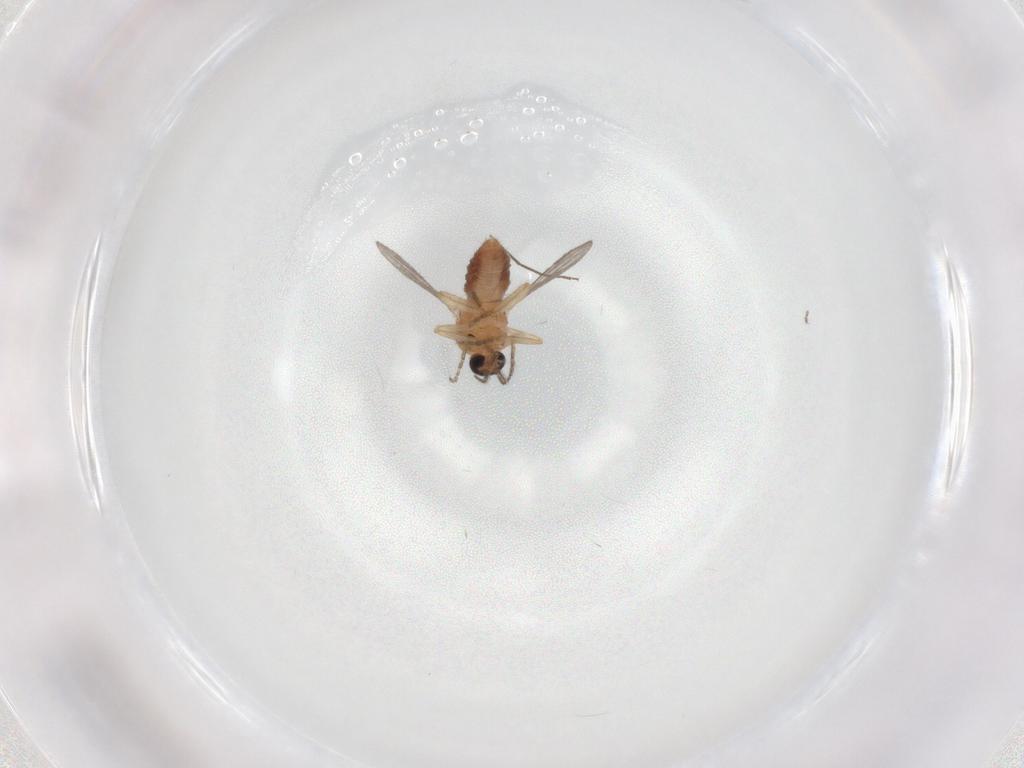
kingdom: Animalia
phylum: Arthropoda
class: Insecta
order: Diptera
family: Ceratopogonidae
